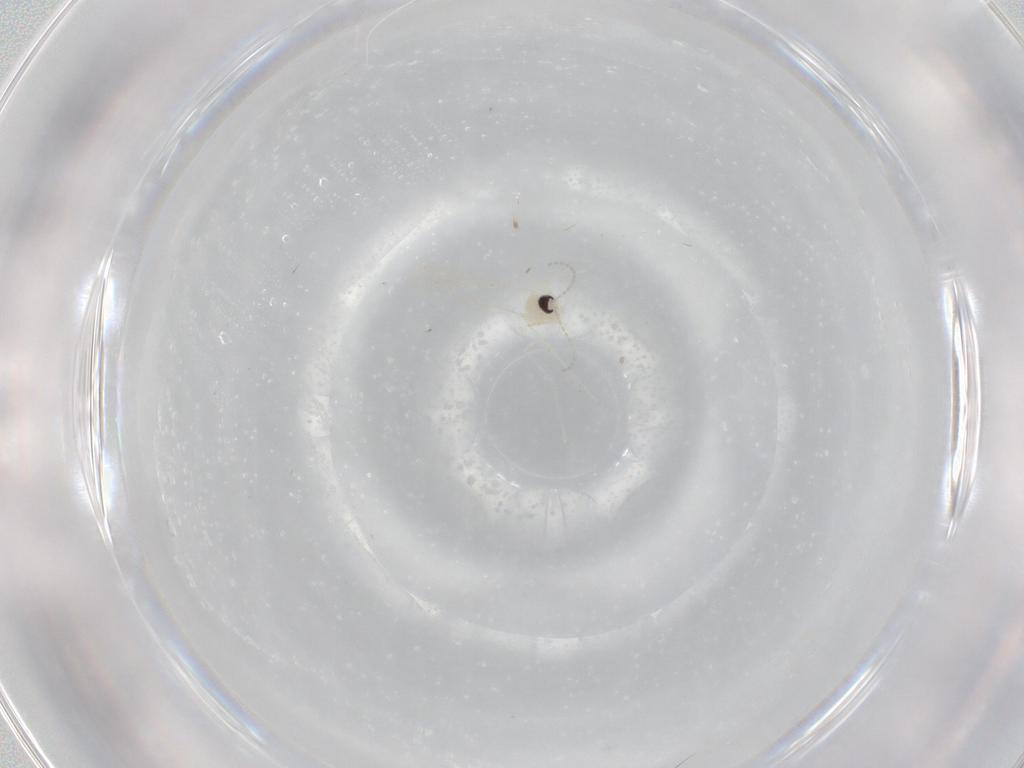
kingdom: Animalia
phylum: Arthropoda
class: Insecta
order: Diptera
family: Cecidomyiidae
